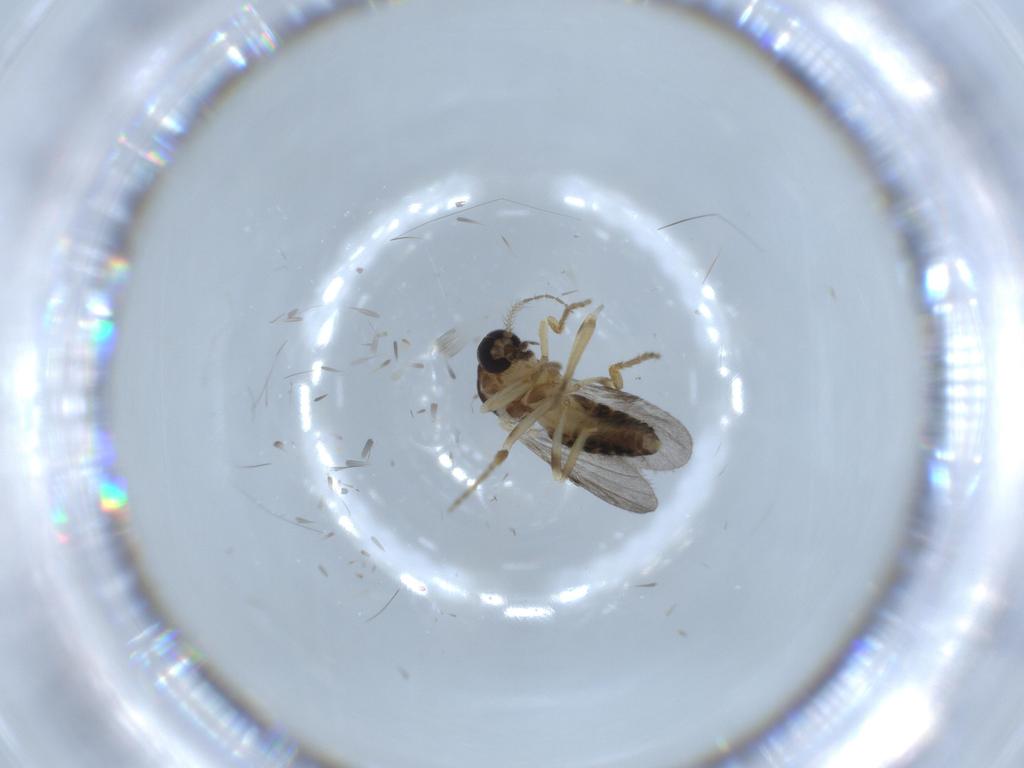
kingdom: Animalia
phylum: Arthropoda
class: Insecta
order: Diptera
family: Ceratopogonidae
